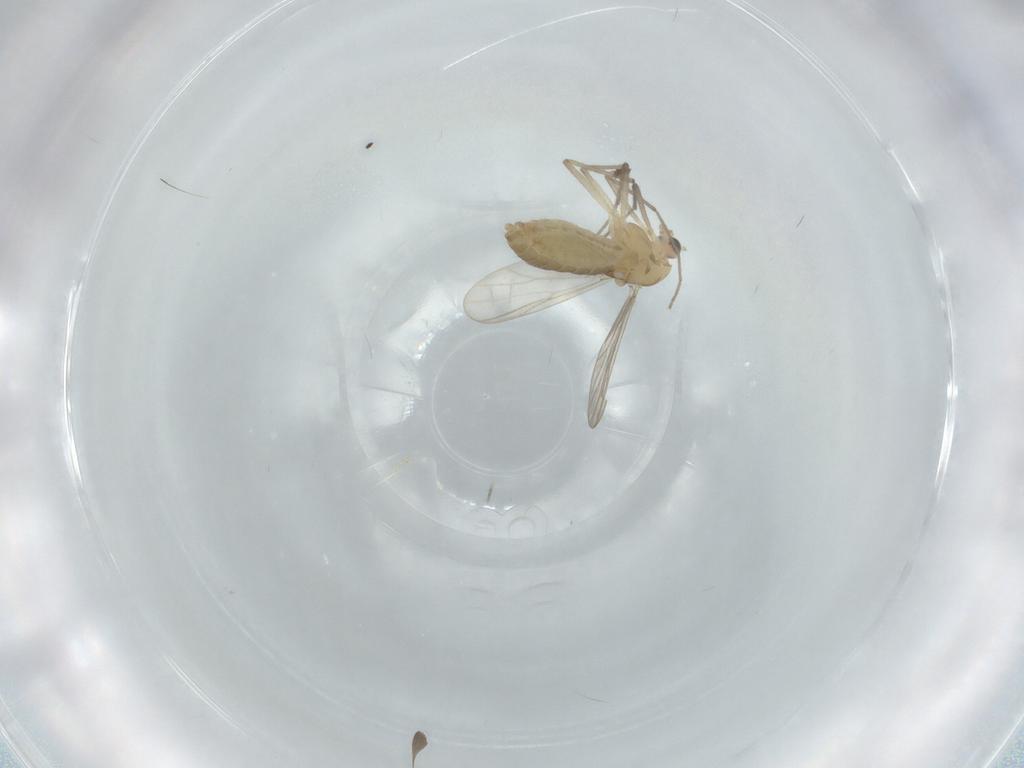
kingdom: Animalia
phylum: Arthropoda
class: Insecta
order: Diptera
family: Chironomidae
